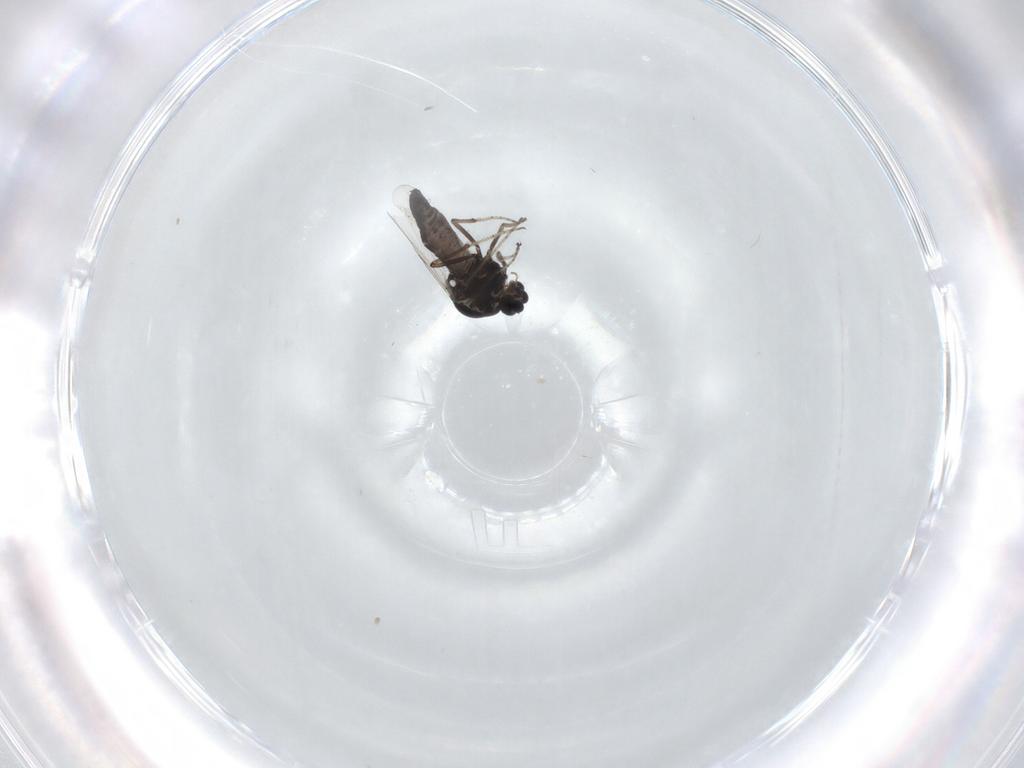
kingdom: Animalia
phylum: Arthropoda
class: Insecta
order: Diptera
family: Ceratopogonidae
